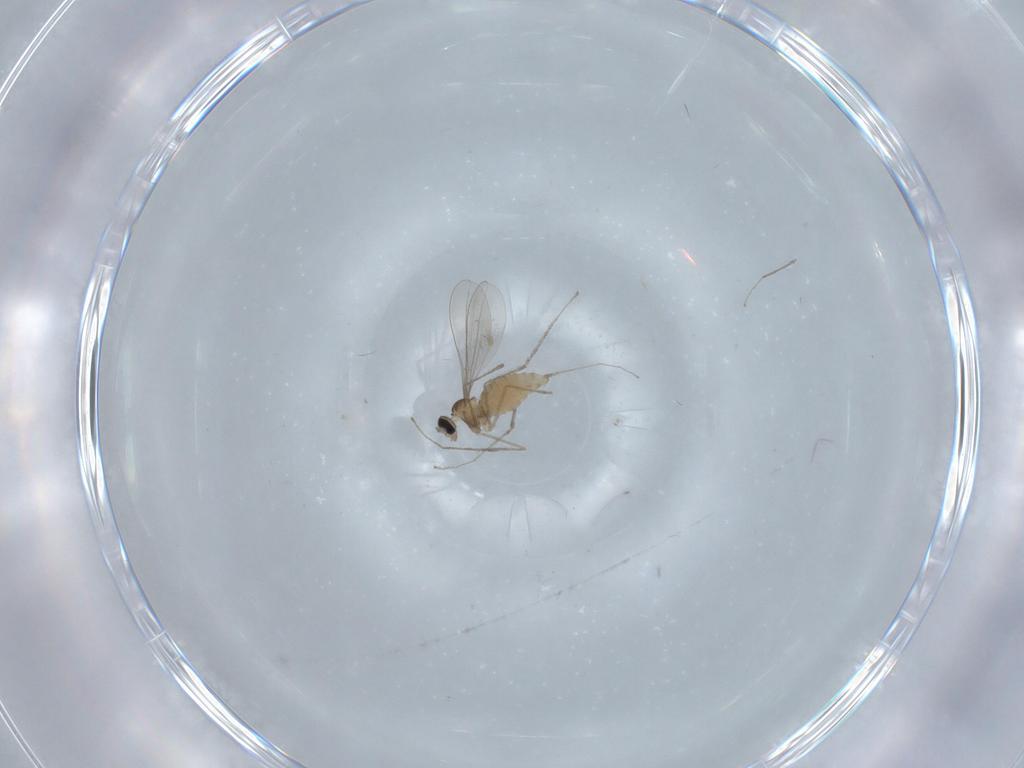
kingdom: Animalia
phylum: Arthropoda
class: Insecta
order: Diptera
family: Cecidomyiidae
